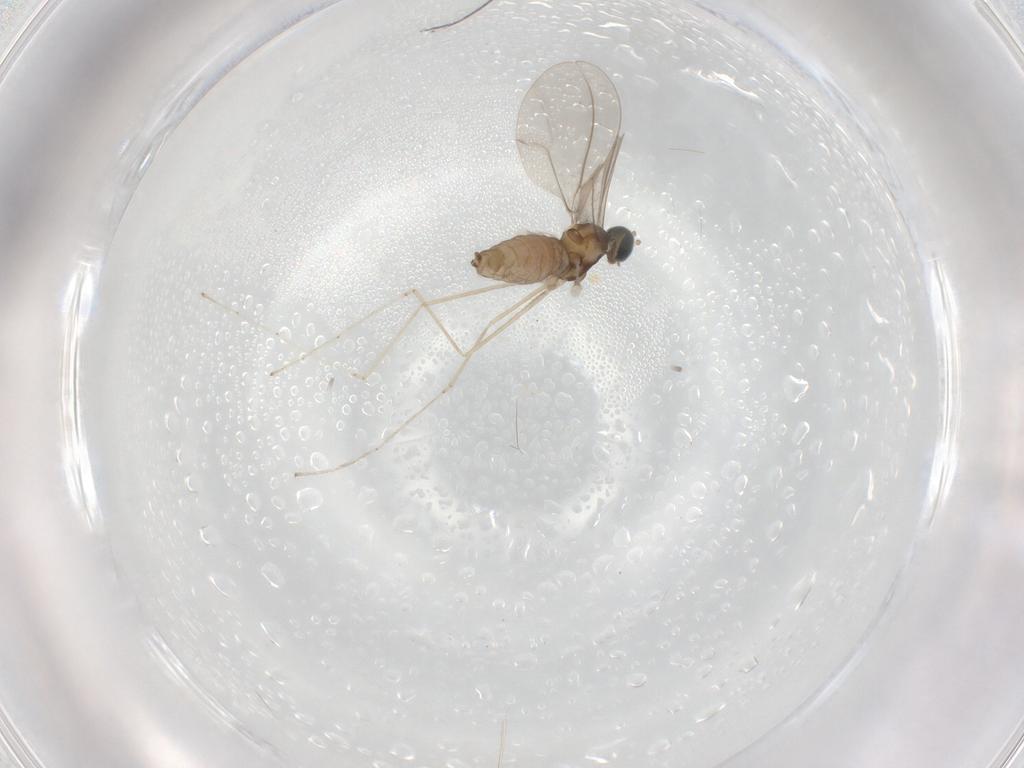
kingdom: Animalia
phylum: Arthropoda
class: Insecta
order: Diptera
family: Cecidomyiidae
